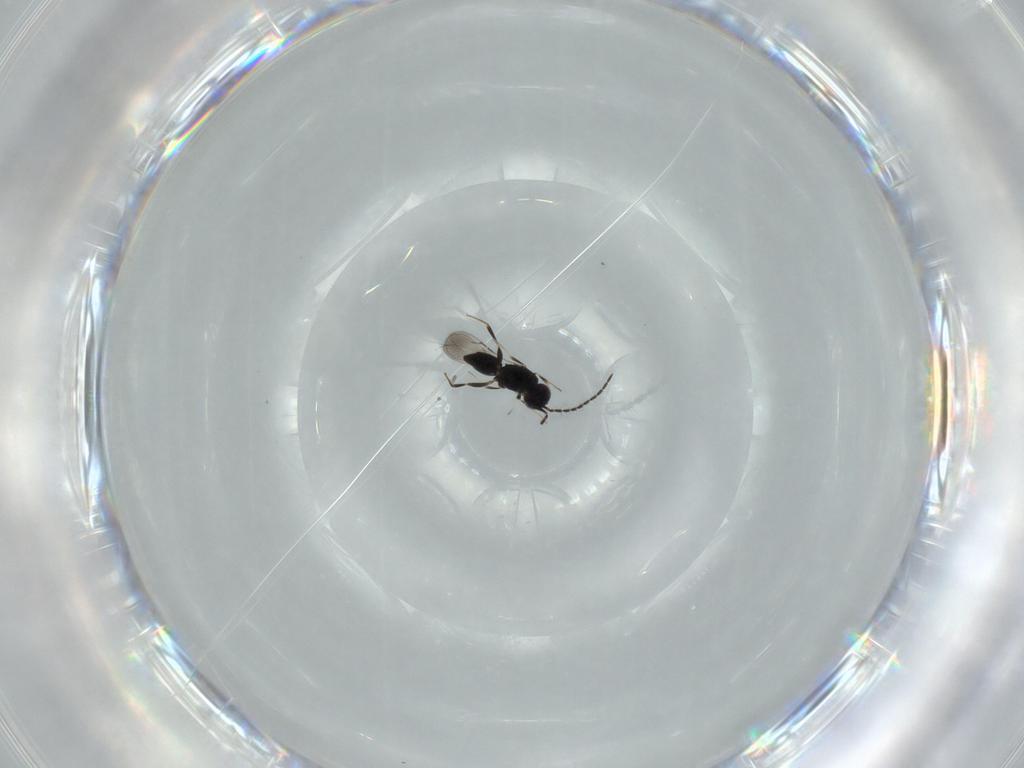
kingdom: Animalia
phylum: Arthropoda
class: Insecta
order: Hymenoptera
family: Pompilidae
